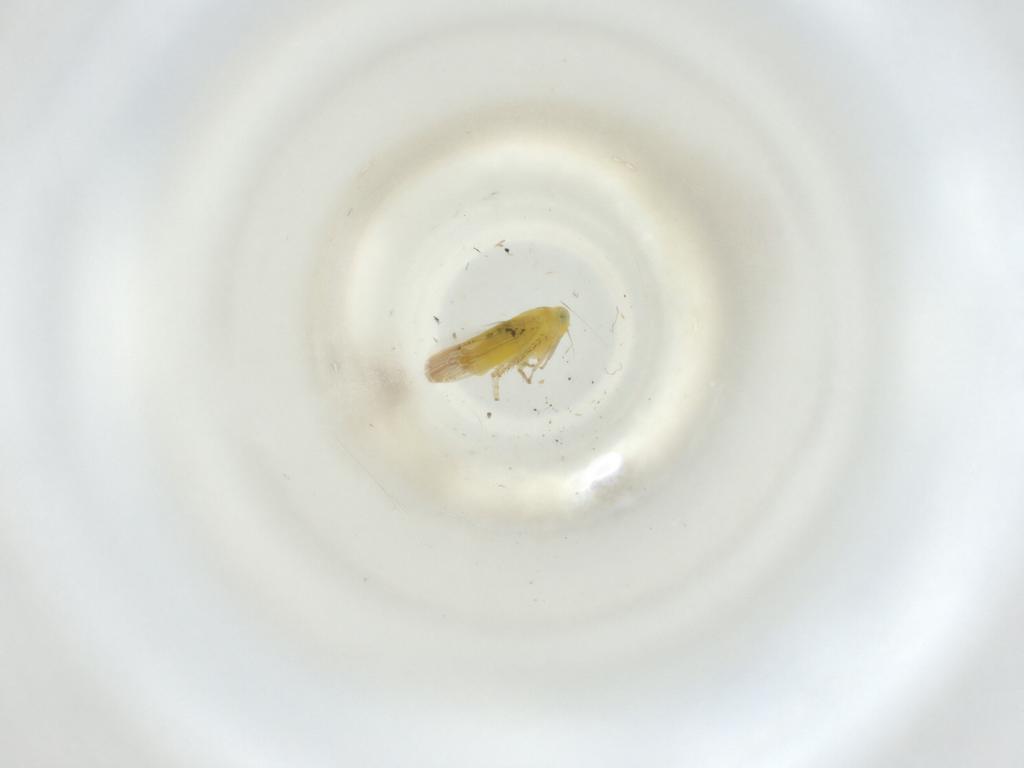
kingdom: Animalia
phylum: Arthropoda
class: Insecta
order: Hemiptera
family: Cicadellidae
